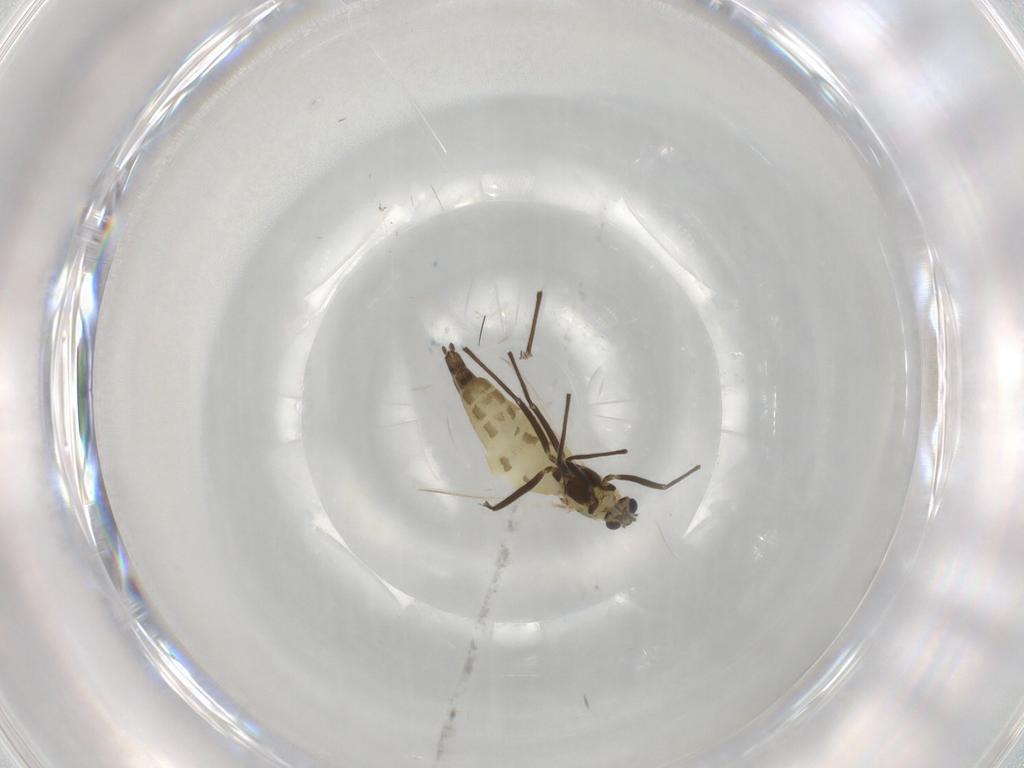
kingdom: Animalia
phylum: Arthropoda
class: Insecta
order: Diptera
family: Chironomidae
